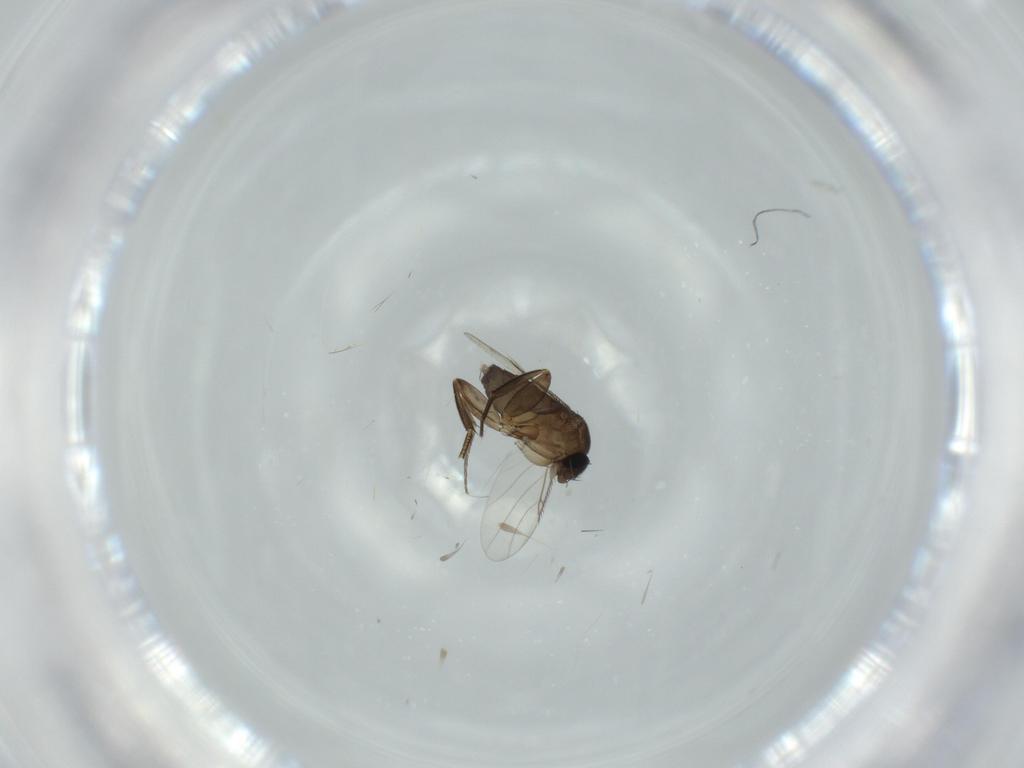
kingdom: Animalia
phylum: Arthropoda
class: Insecta
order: Diptera
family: Phoridae
